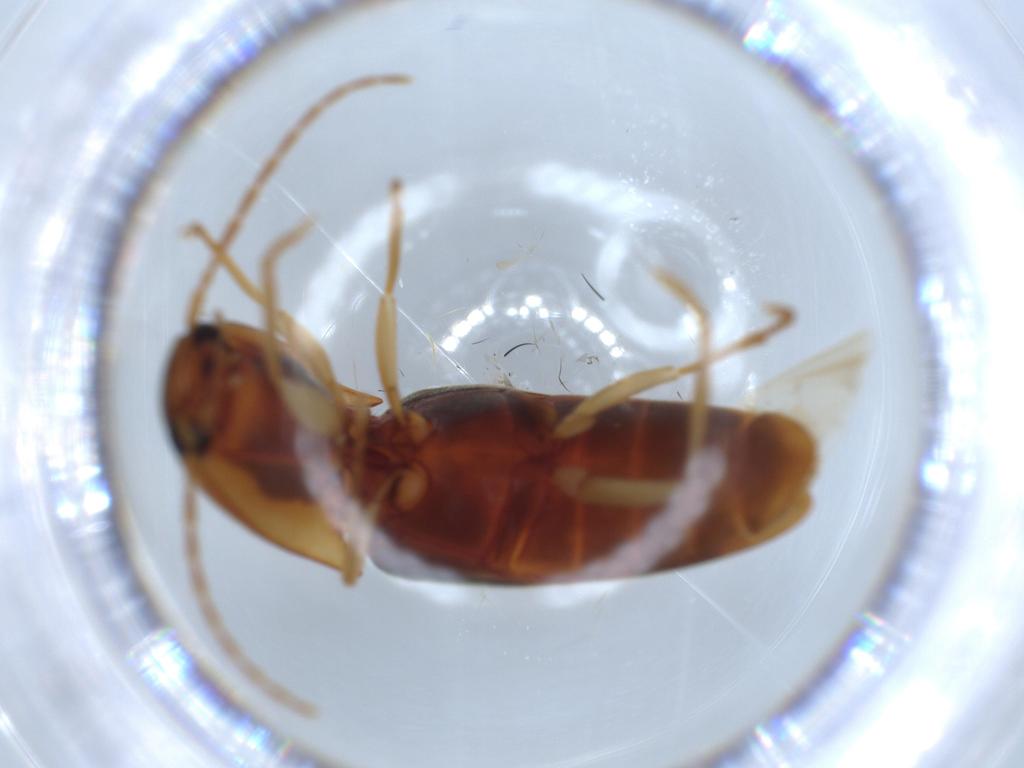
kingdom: Animalia
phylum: Arthropoda
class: Insecta
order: Coleoptera
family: Elateridae
